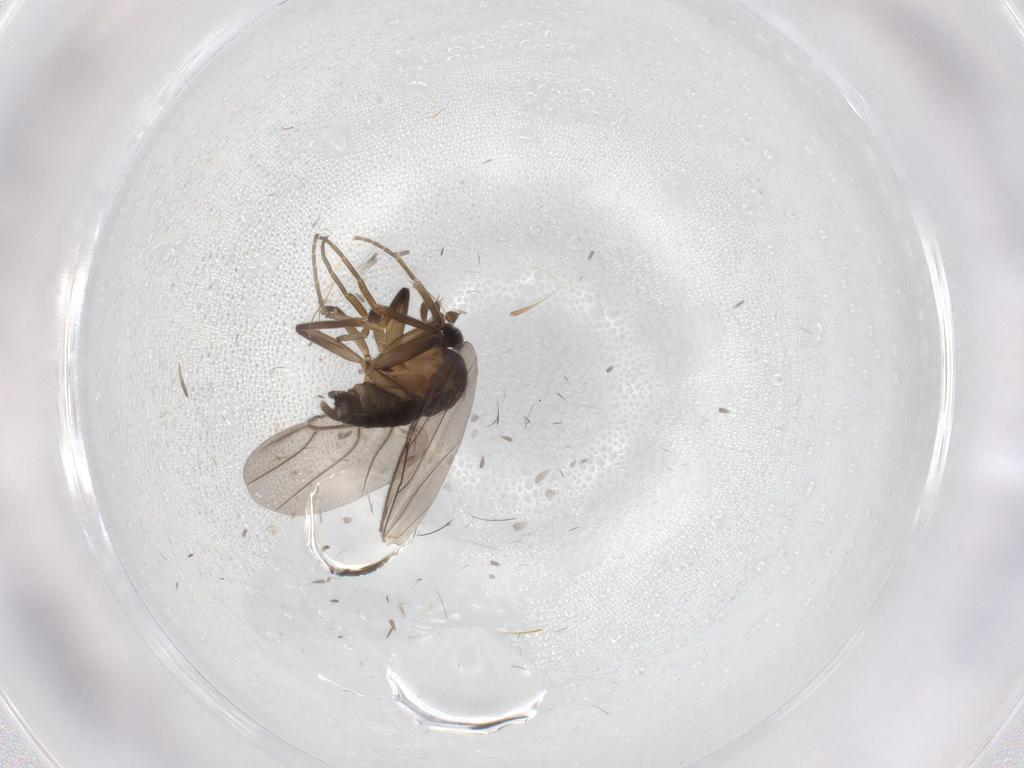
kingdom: Animalia
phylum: Arthropoda
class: Insecta
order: Diptera
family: Phoridae
